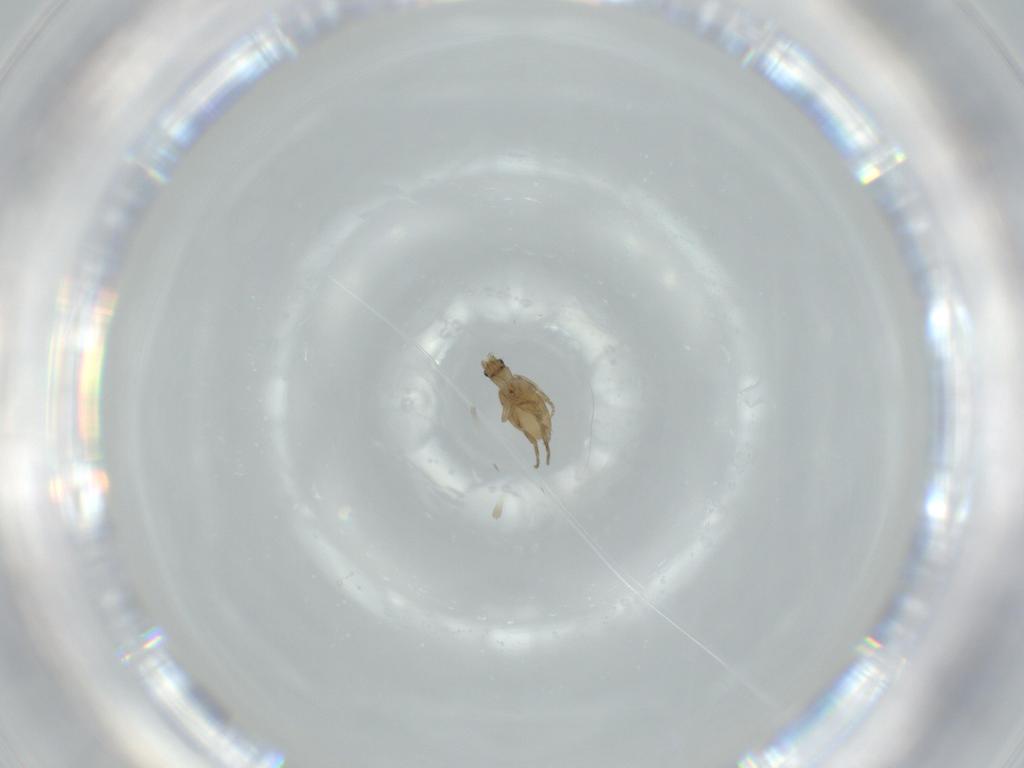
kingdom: Animalia
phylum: Arthropoda
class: Insecta
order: Diptera
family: Phoridae
